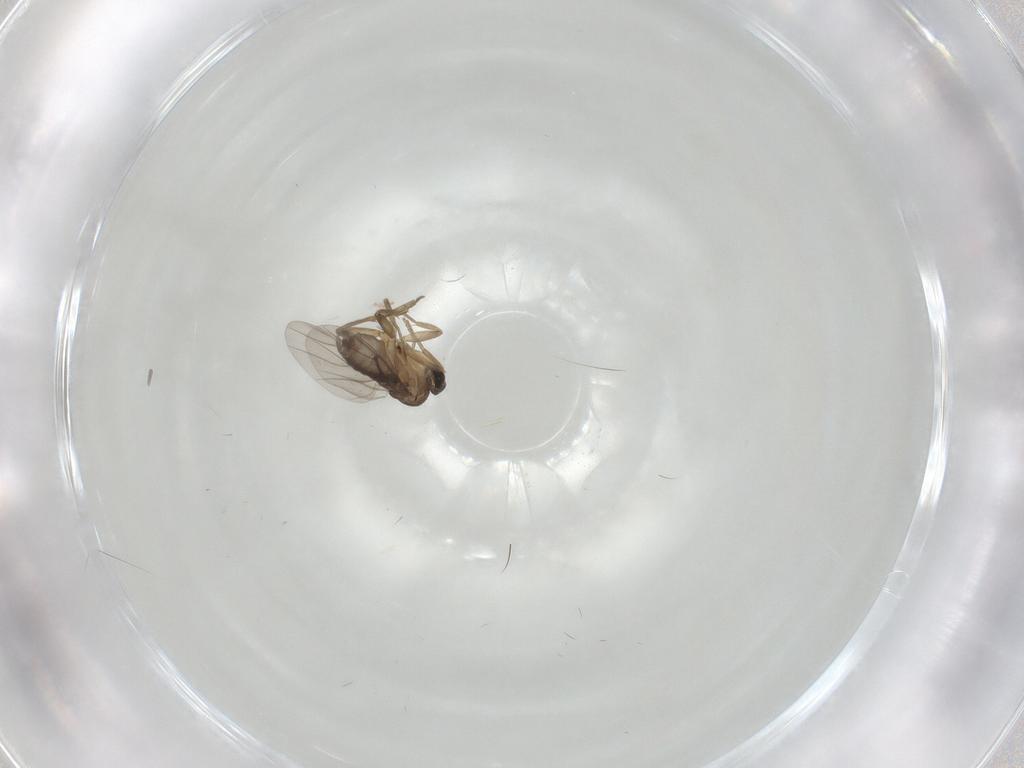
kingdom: Animalia
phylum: Arthropoda
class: Insecta
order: Diptera
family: Phoridae
